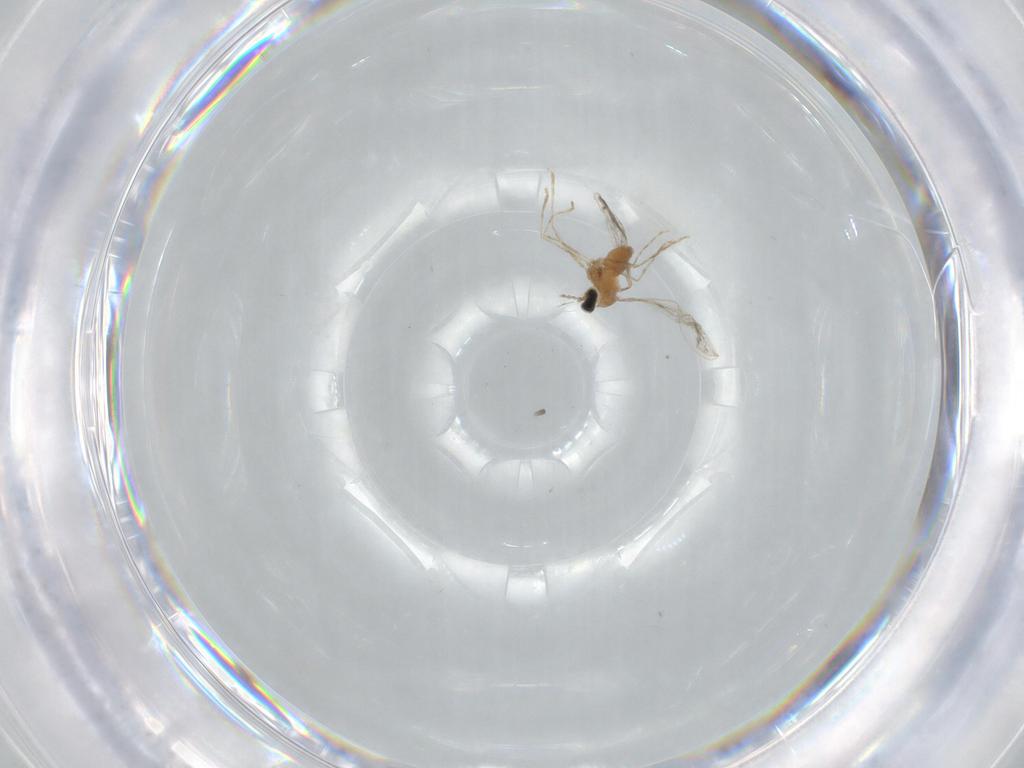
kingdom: Animalia
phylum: Arthropoda
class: Insecta
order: Diptera
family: Cecidomyiidae
